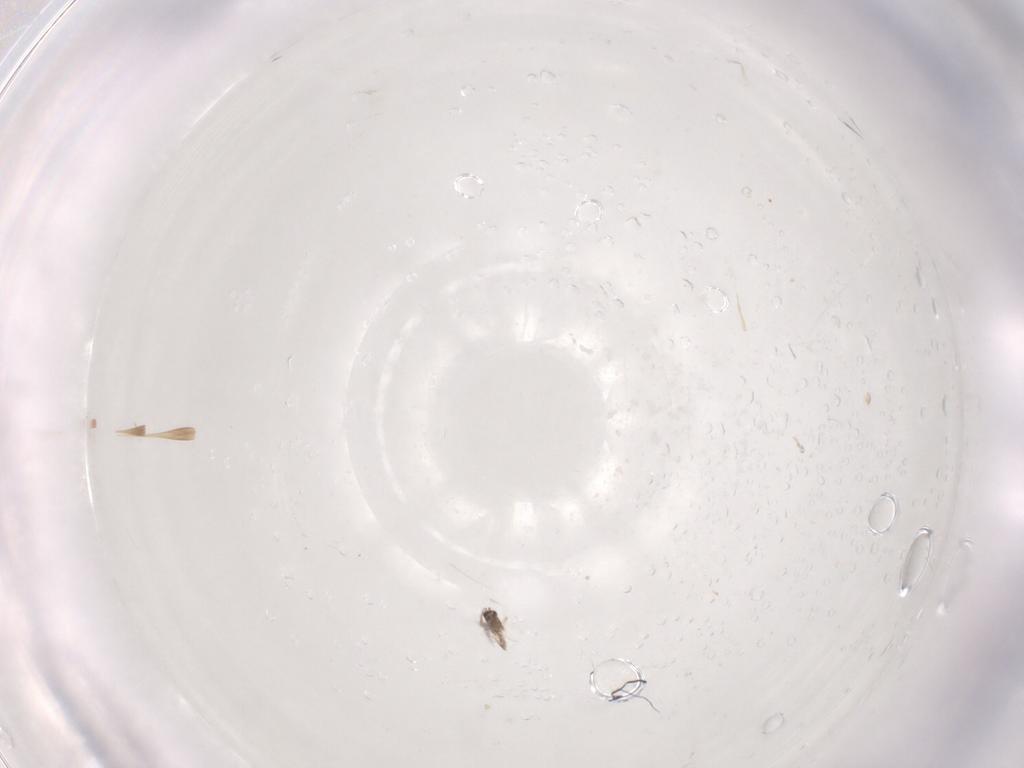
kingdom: Animalia
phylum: Arthropoda
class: Insecta
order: Hymenoptera
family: Mymaridae
